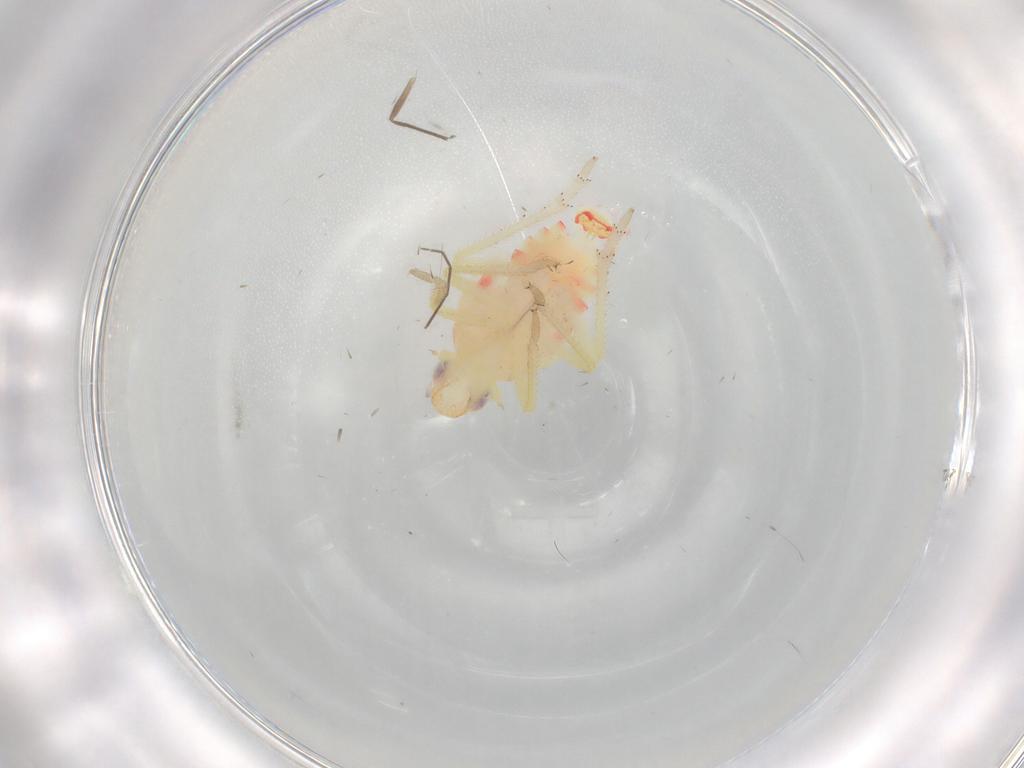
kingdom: Animalia
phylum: Arthropoda
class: Insecta
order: Hemiptera
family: Tropiduchidae
